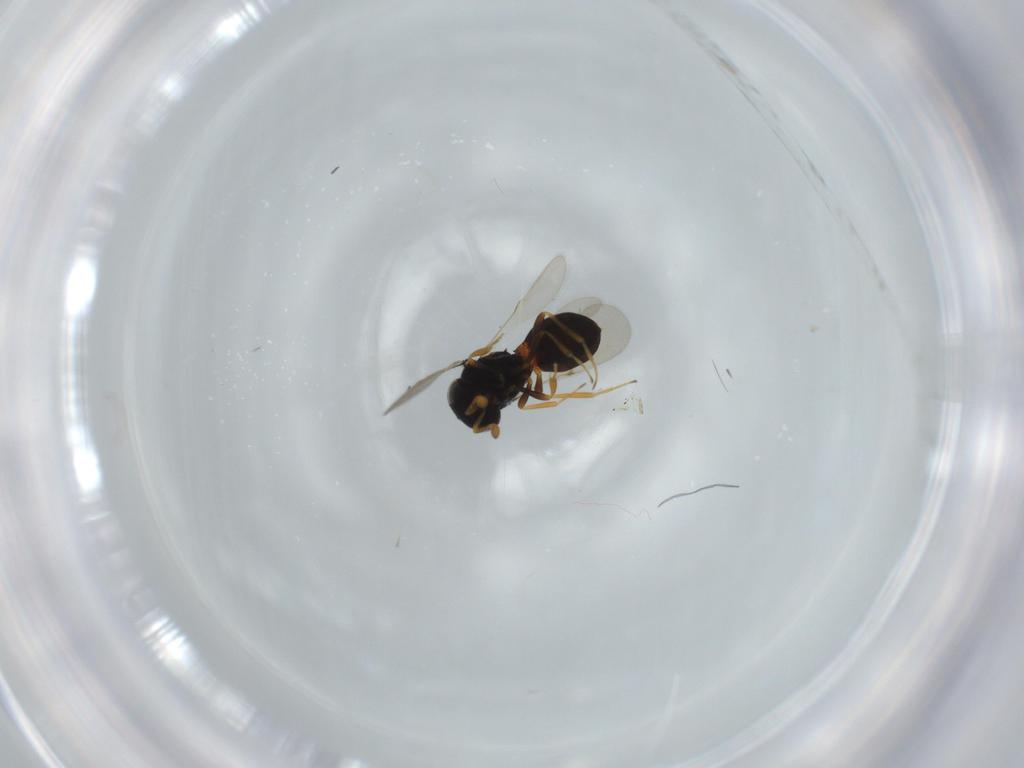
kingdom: Animalia
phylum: Arthropoda
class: Insecta
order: Hymenoptera
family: Scelionidae
